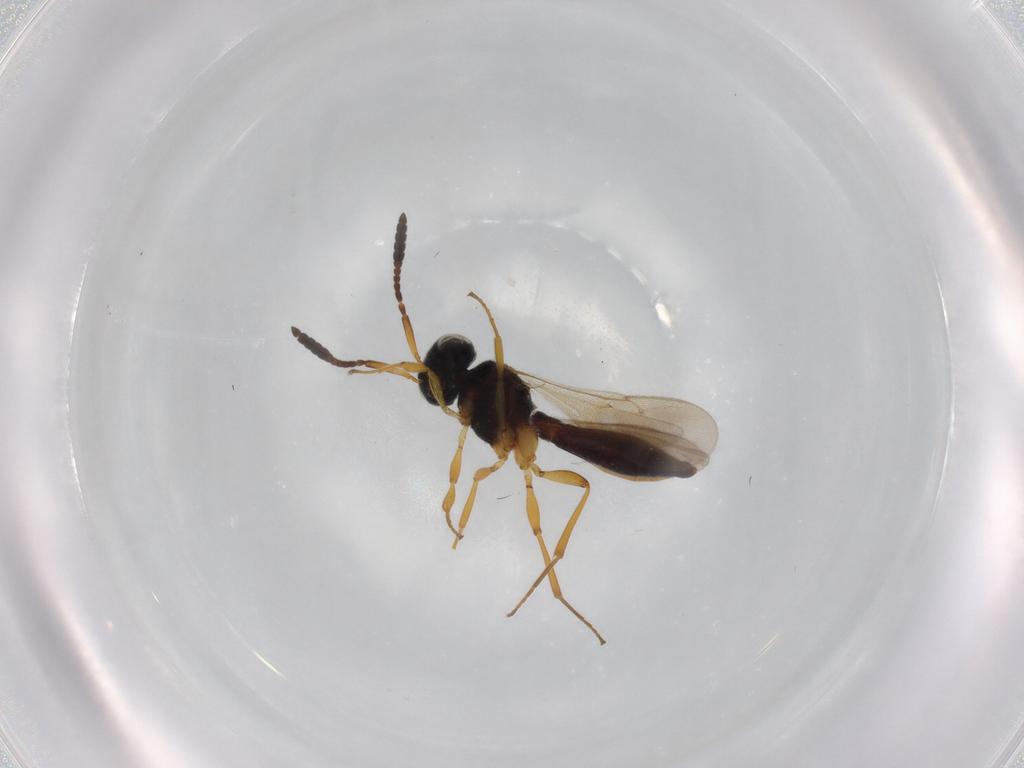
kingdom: Animalia
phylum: Arthropoda
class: Insecta
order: Hymenoptera
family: Scelionidae
